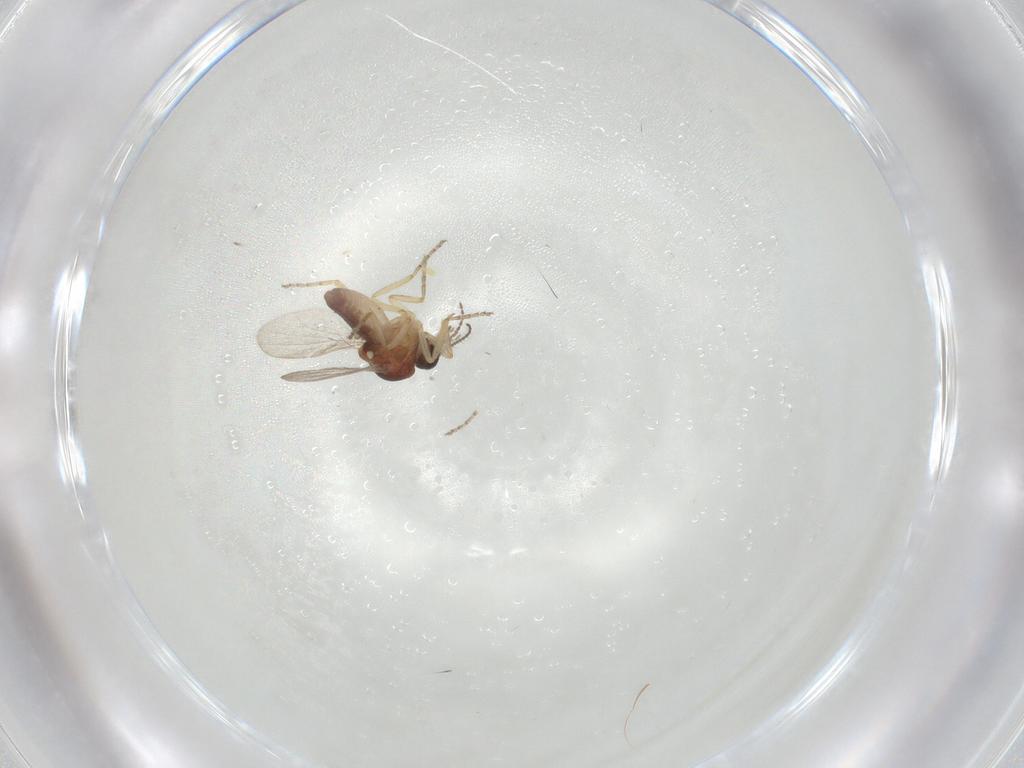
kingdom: Animalia
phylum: Arthropoda
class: Insecta
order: Diptera
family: Ceratopogonidae
